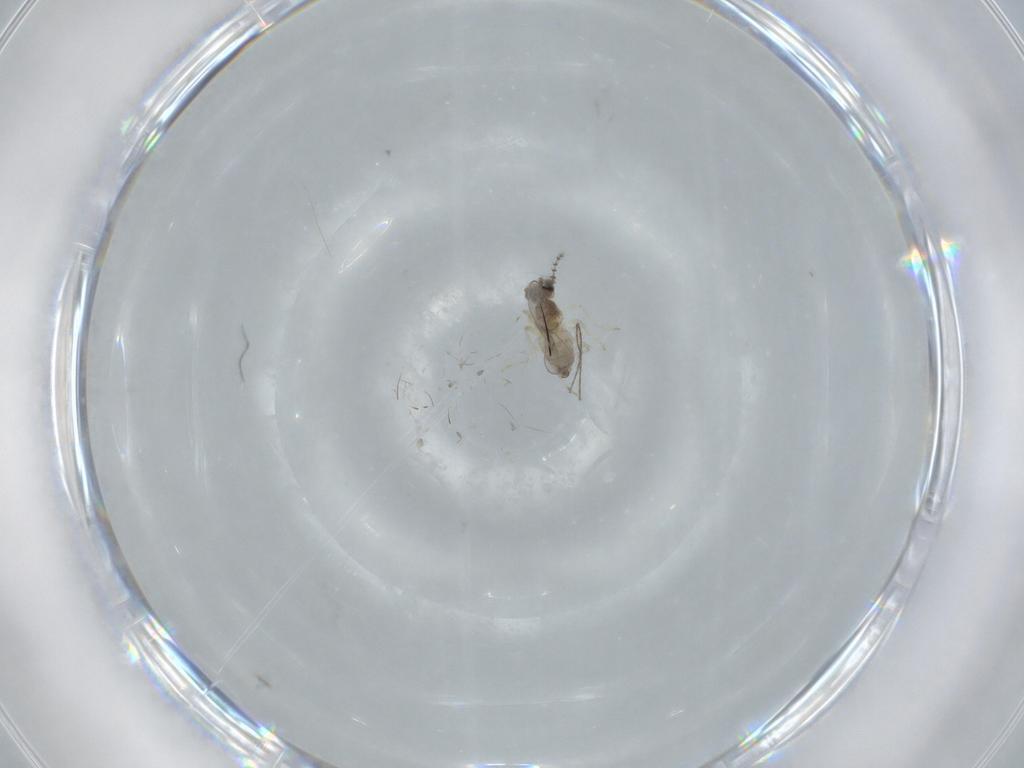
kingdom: Animalia
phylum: Arthropoda
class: Insecta
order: Diptera
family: Cecidomyiidae
